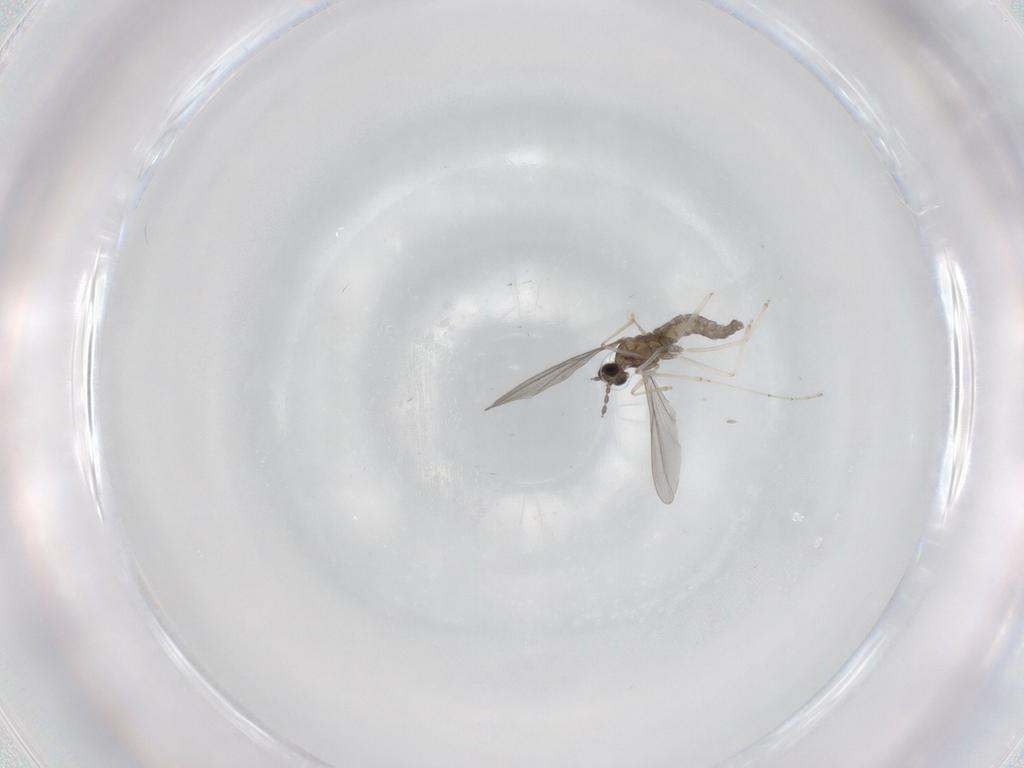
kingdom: Animalia
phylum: Arthropoda
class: Insecta
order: Diptera
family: Cecidomyiidae
